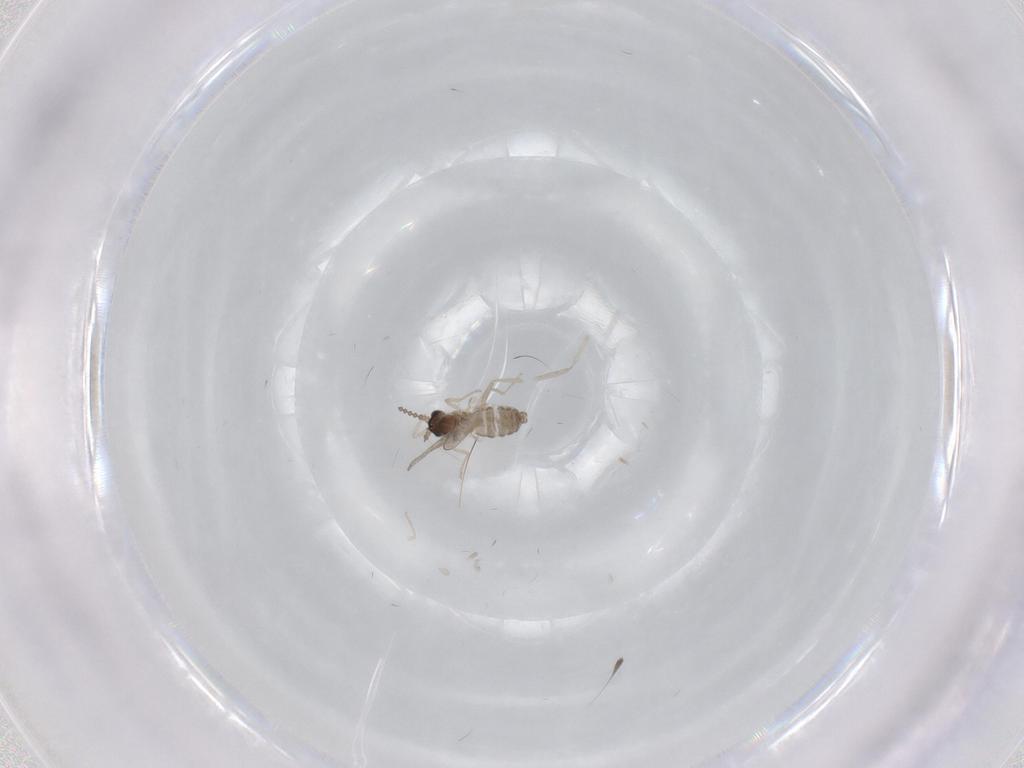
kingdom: Animalia
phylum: Arthropoda
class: Insecta
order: Diptera
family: Cecidomyiidae
